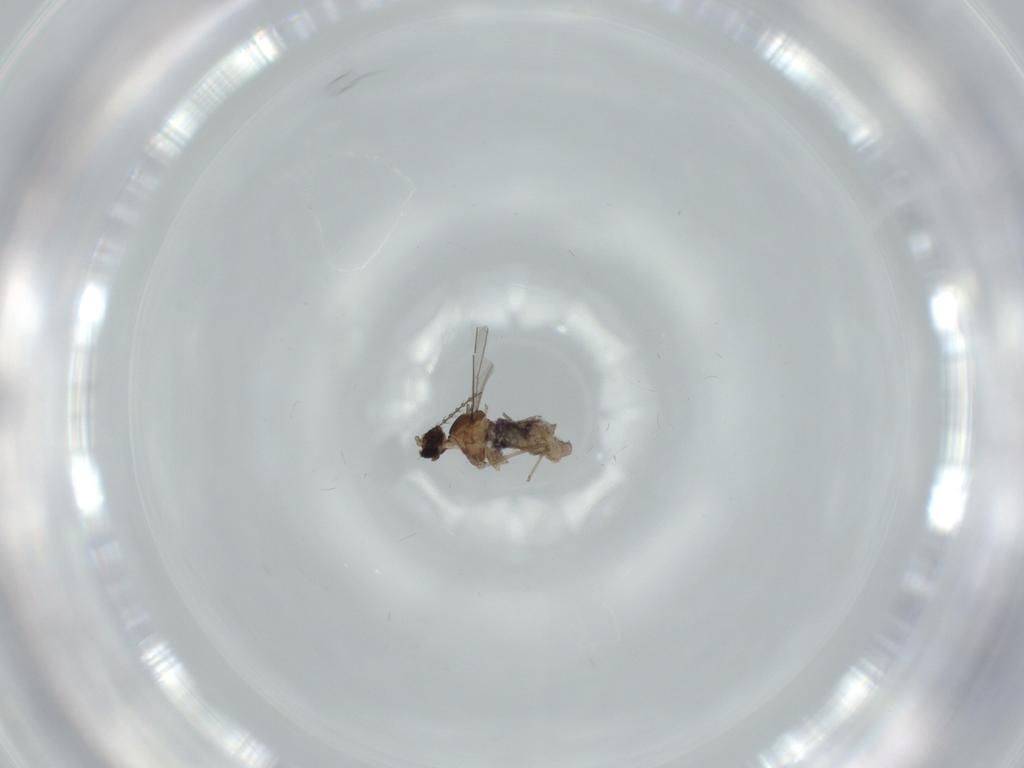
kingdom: Animalia
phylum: Arthropoda
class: Insecta
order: Diptera
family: Cecidomyiidae
